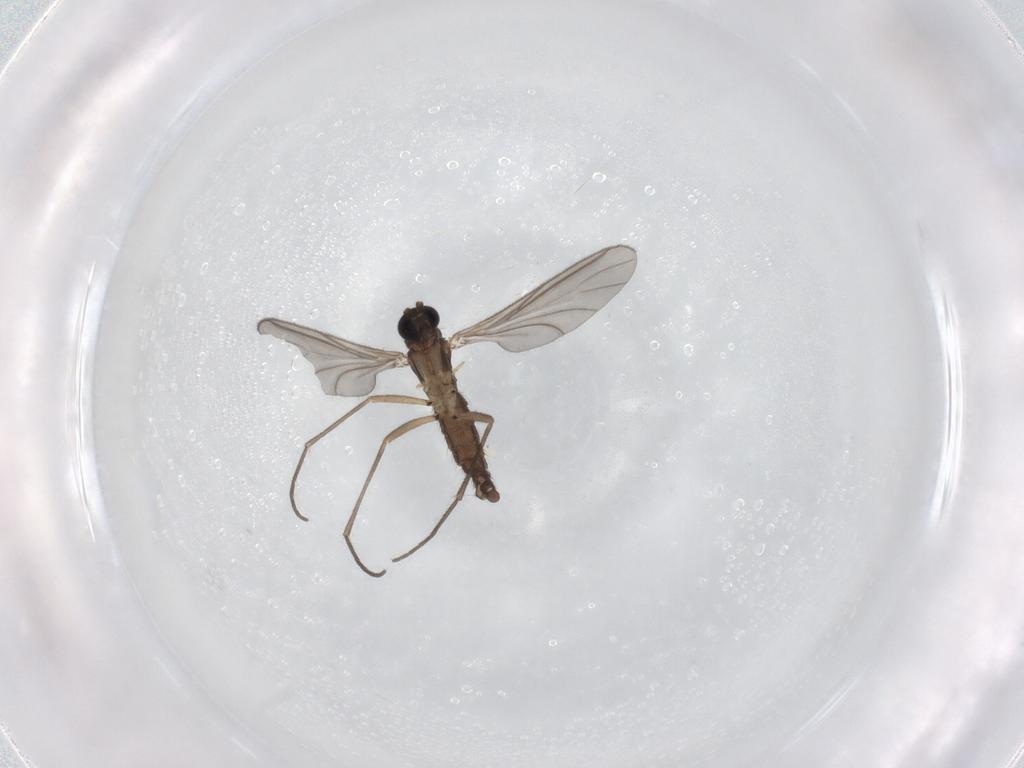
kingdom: Animalia
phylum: Arthropoda
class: Insecta
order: Diptera
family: Sciaridae
